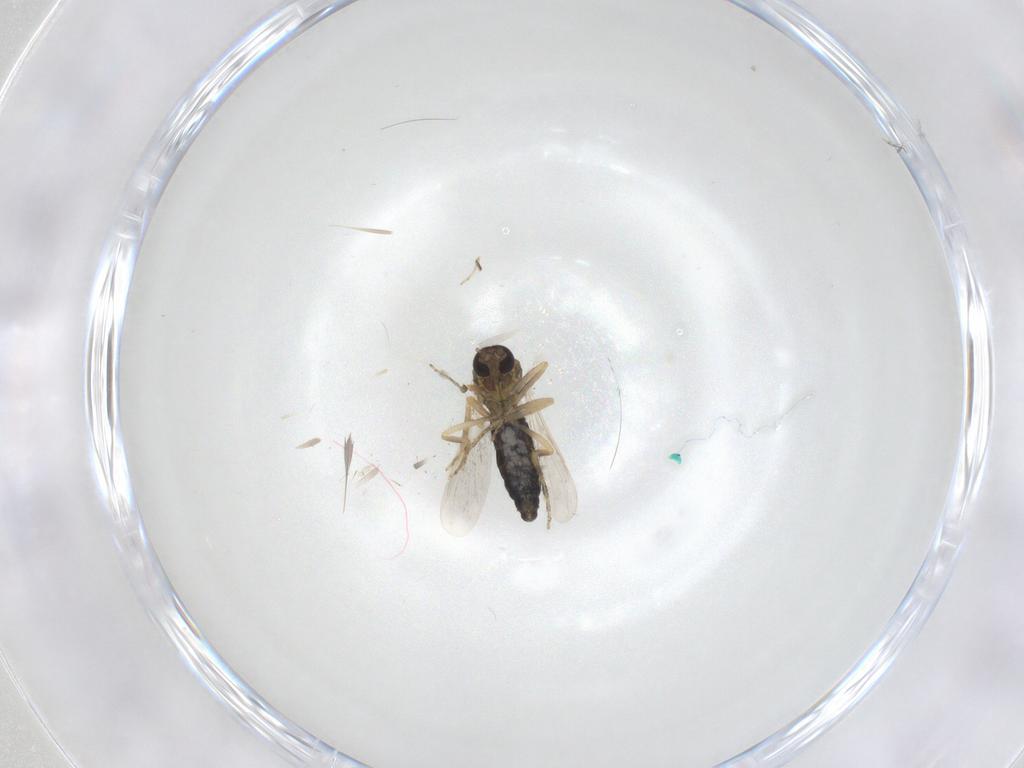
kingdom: Animalia
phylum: Arthropoda
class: Insecta
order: Diptera
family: Ceratopogonidae
